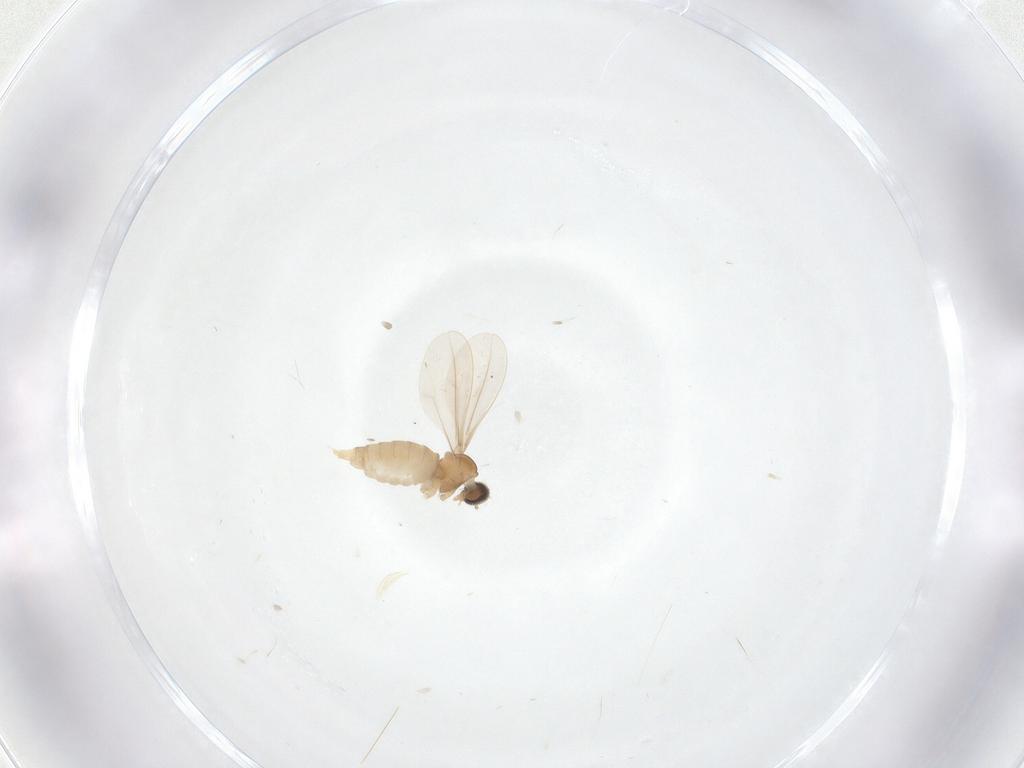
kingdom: Animalia
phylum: Arthropoda
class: Insecta
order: Diptera
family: Cecidomyiidae
